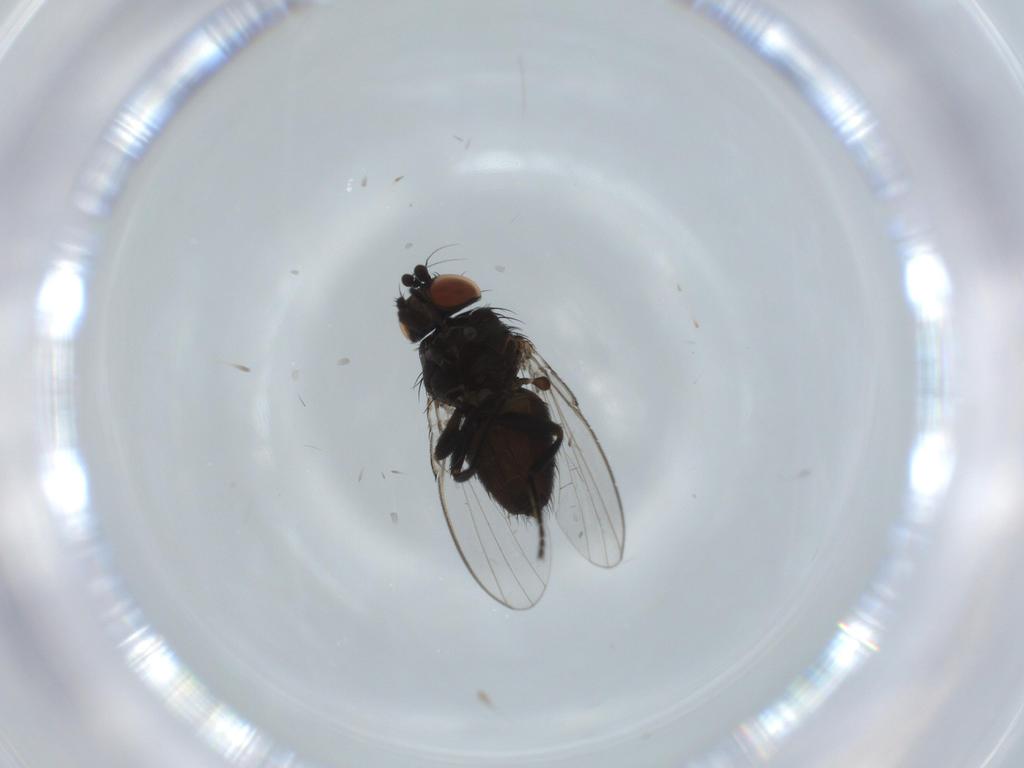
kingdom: Animalia
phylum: Arthropoda
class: Insecta
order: Diptera
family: Milichiidae
